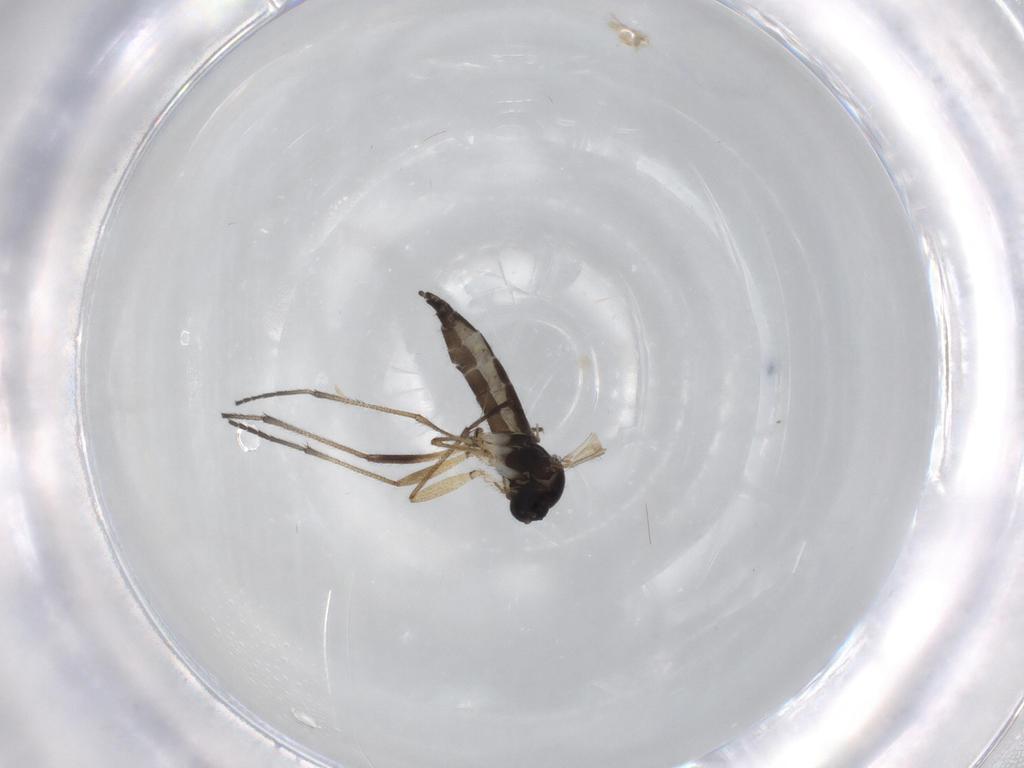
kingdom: Animalia
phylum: Arthropoda
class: Insecta
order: Diptera
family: Sciaridae
